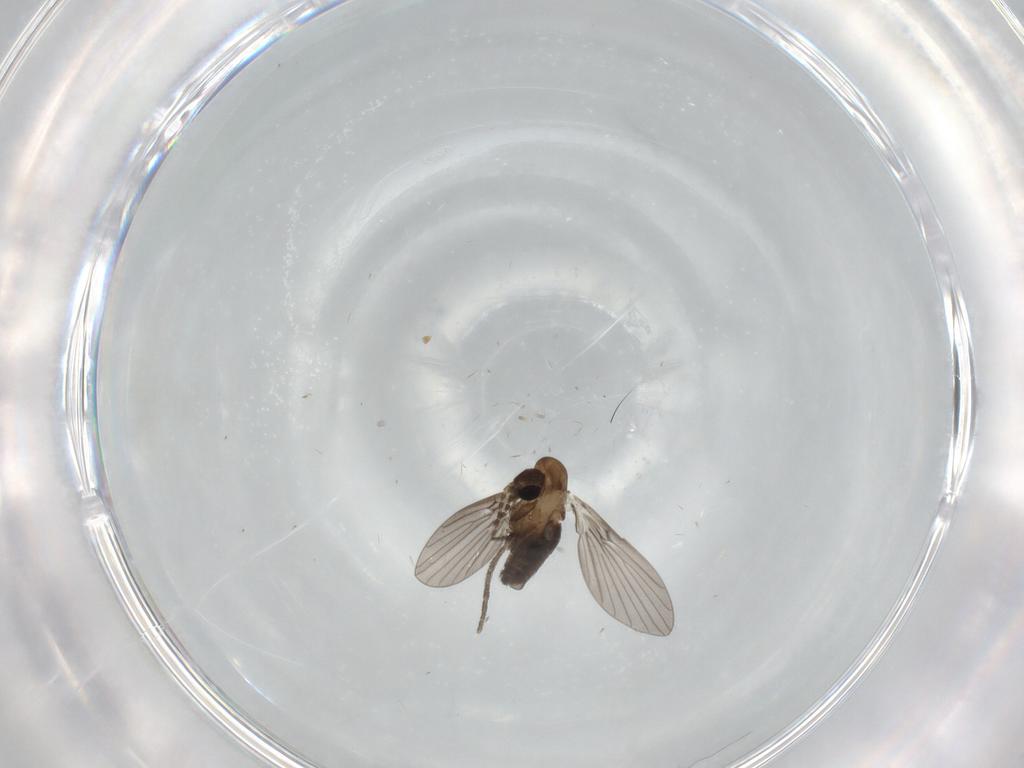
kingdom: Animalia
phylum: Arthropoda
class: Insecta
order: Diptera
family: Psychodidae
